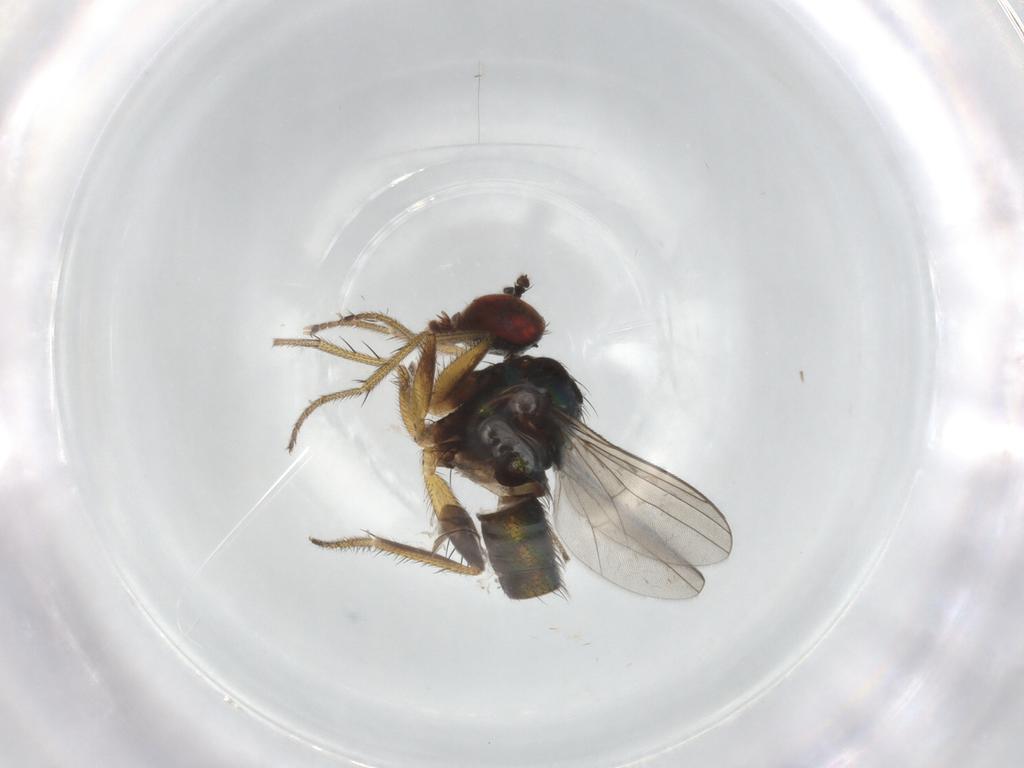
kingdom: Animalia
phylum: Arthropoda
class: Insecta
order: Diptera
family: Chironomidae
